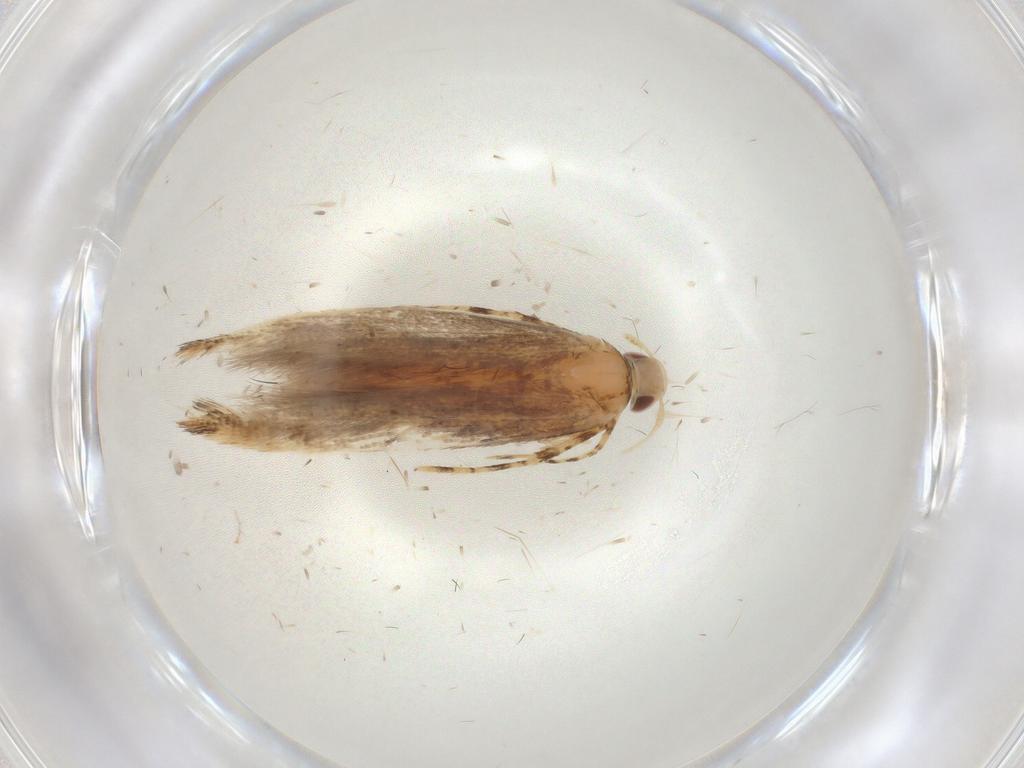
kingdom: Animalia
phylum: Arthropoda
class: Insecta
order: Lepidoptera
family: Cosmopterigidae
